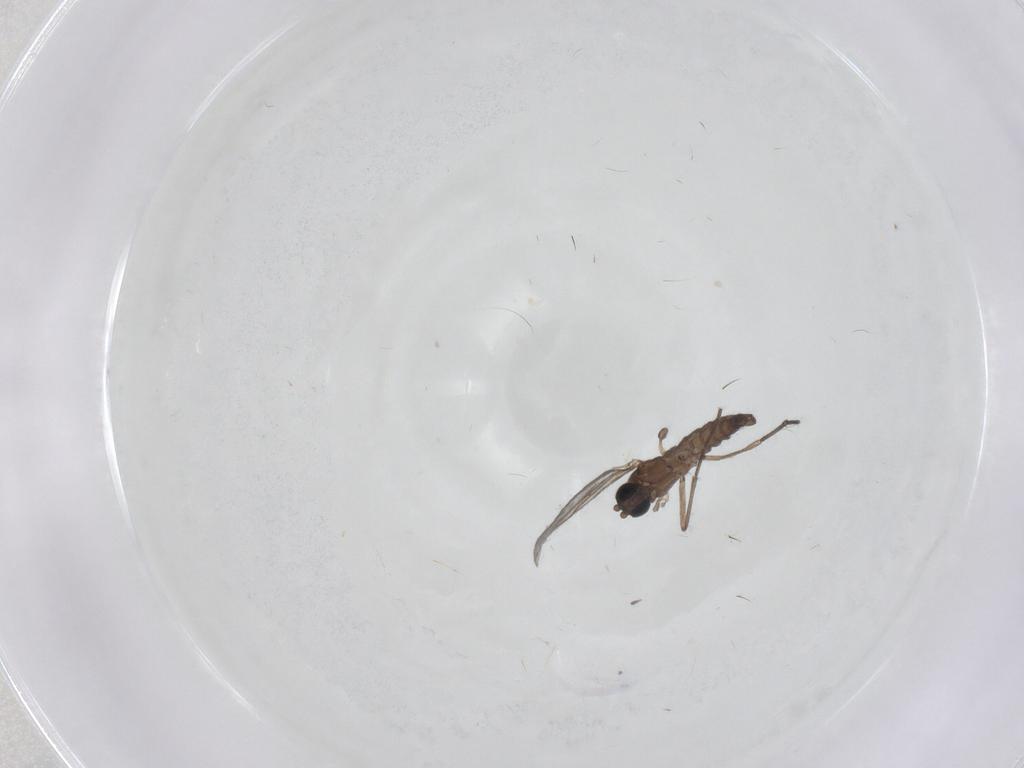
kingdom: Animalia
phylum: Arthropoda
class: Insecta
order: Diptera
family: Sciaridae
